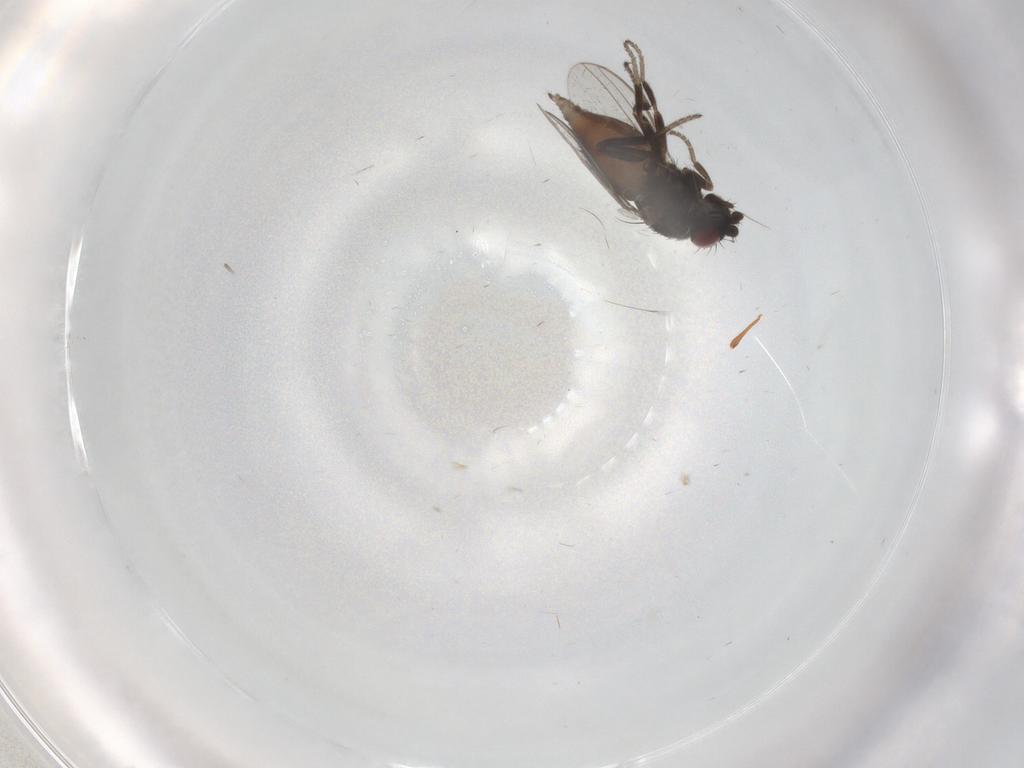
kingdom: Animalia
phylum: Arthropoda
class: Insecta
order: Diptera
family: Milichiidae
